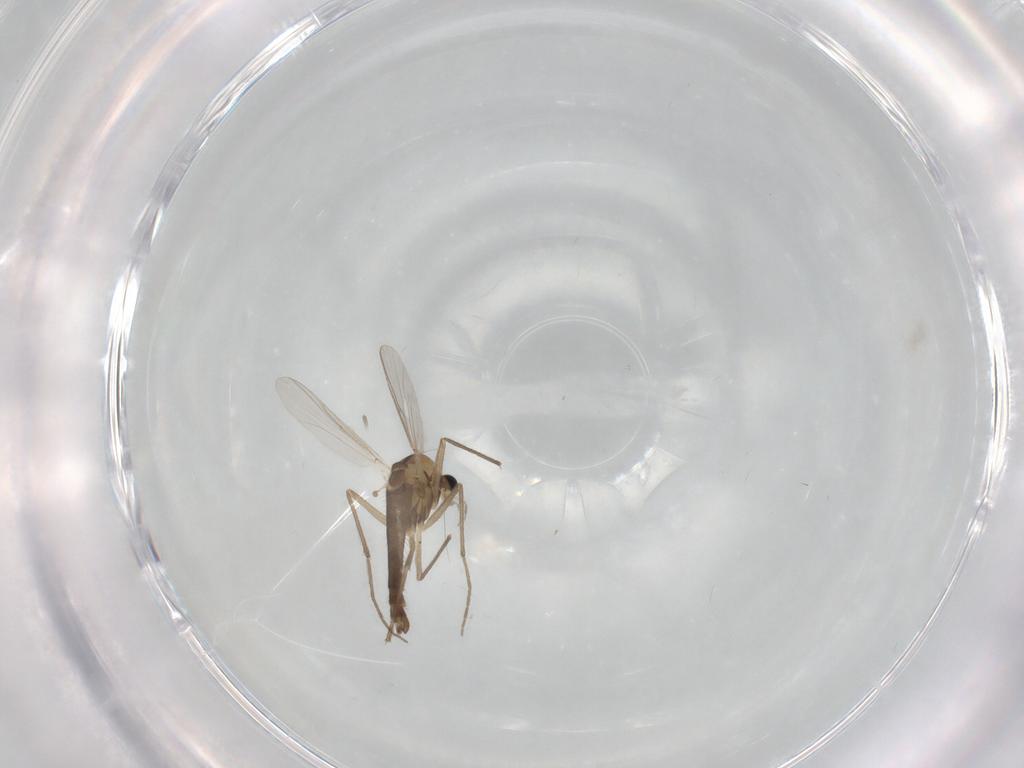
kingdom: Animalia
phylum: Arthropoda
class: Insecta
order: Diptera
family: Chironomidae
